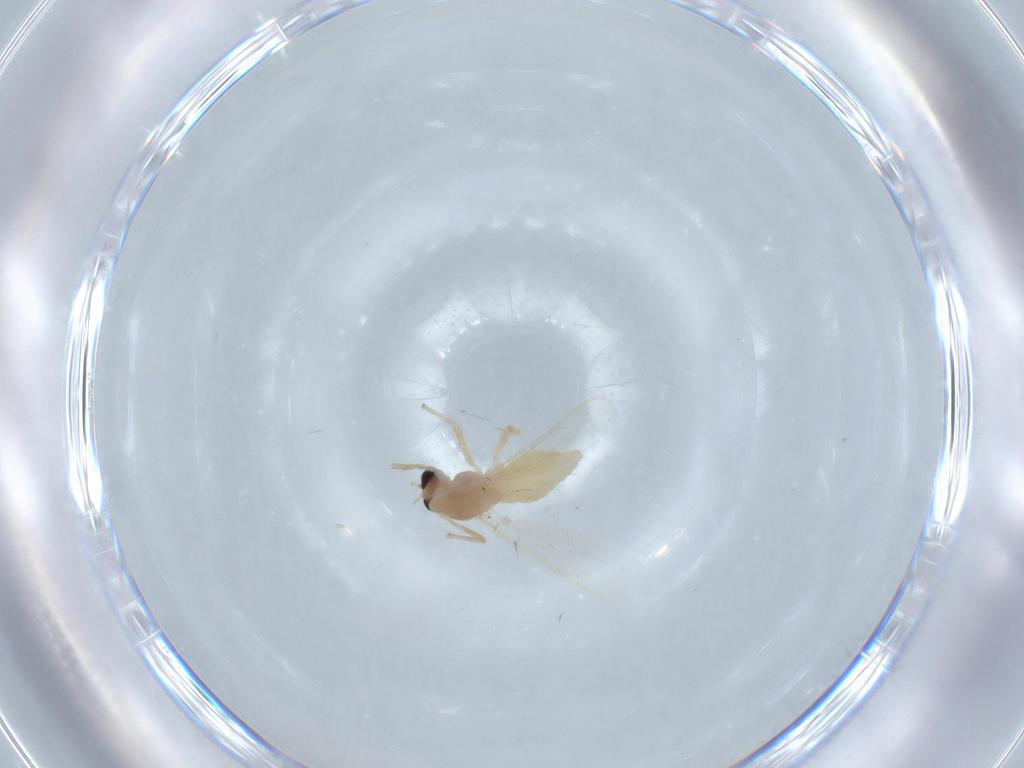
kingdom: Animalia
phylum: Arthropoda
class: Insecta
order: Diptera
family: Chironomidae
